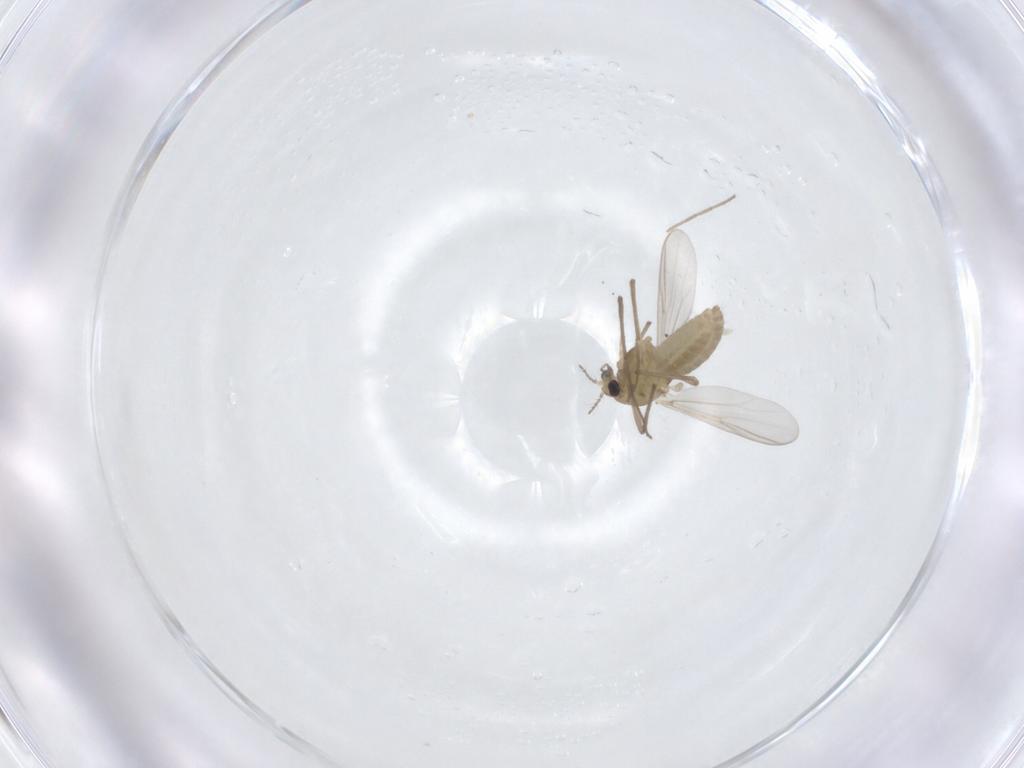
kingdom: Animalia
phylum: Arthropoda
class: Insecta
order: Diptera
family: Chironomidae
